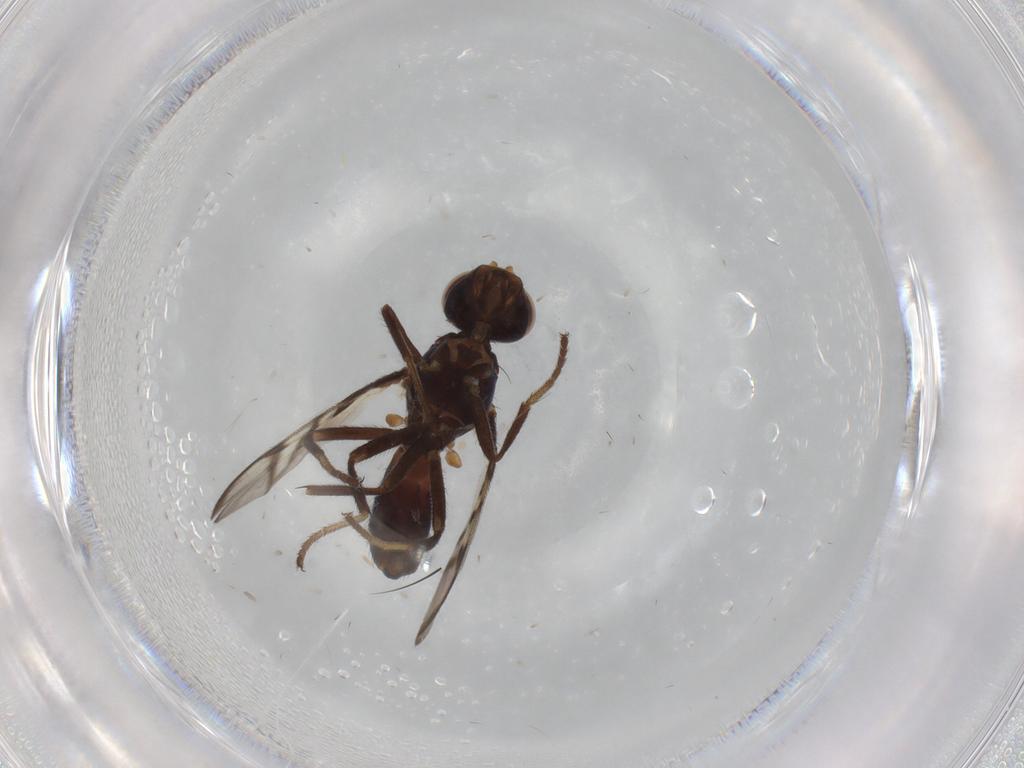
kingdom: Animalia
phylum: Arthropoda
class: Insecta
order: Diptera
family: Platystomatidae
